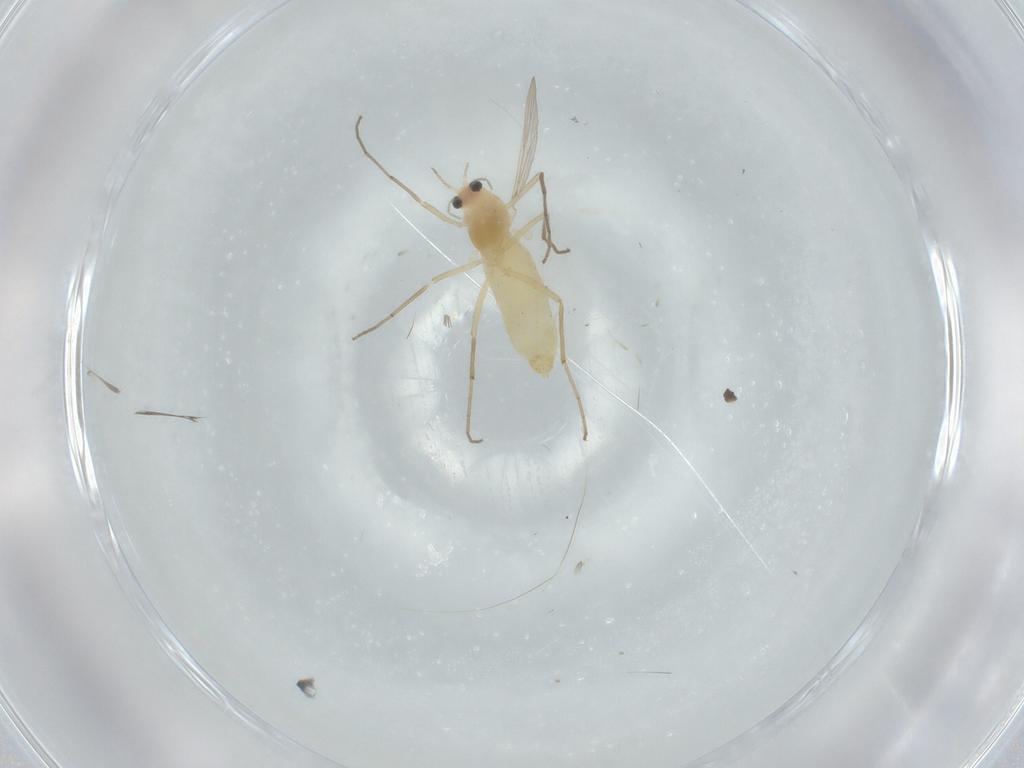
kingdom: Animalia
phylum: Arthropoda
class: Insecta
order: Diptera
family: Chironomidae
